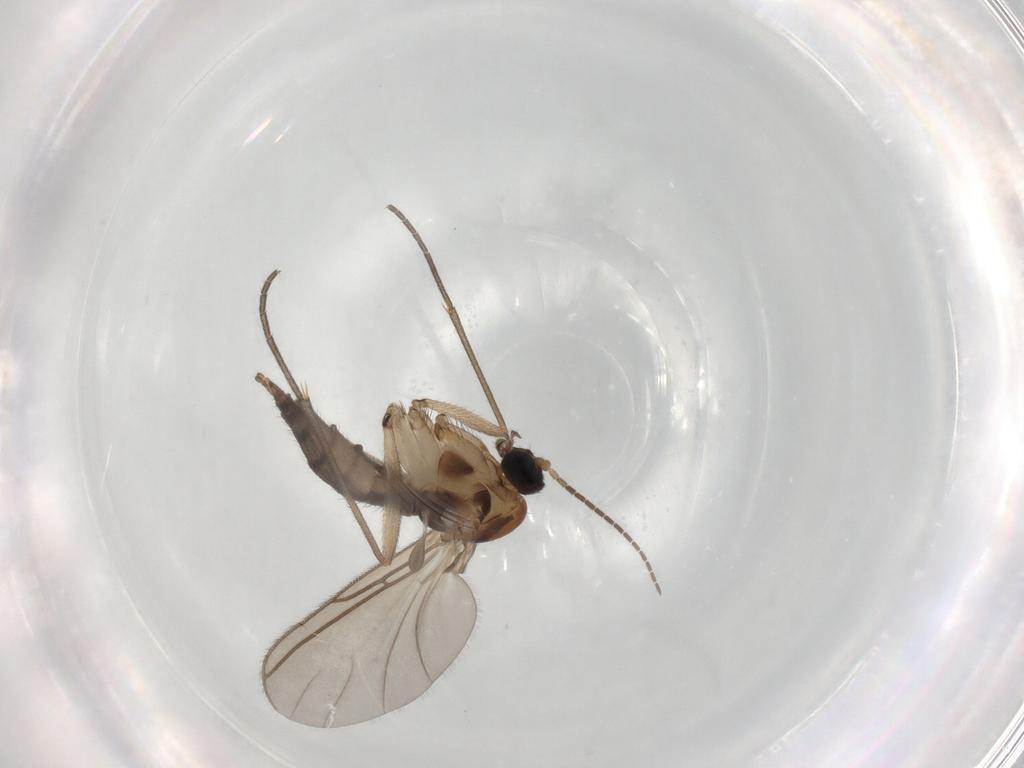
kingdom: Animalia
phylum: Arthropoda
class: Insecta
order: Diptera
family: Sciaridae
